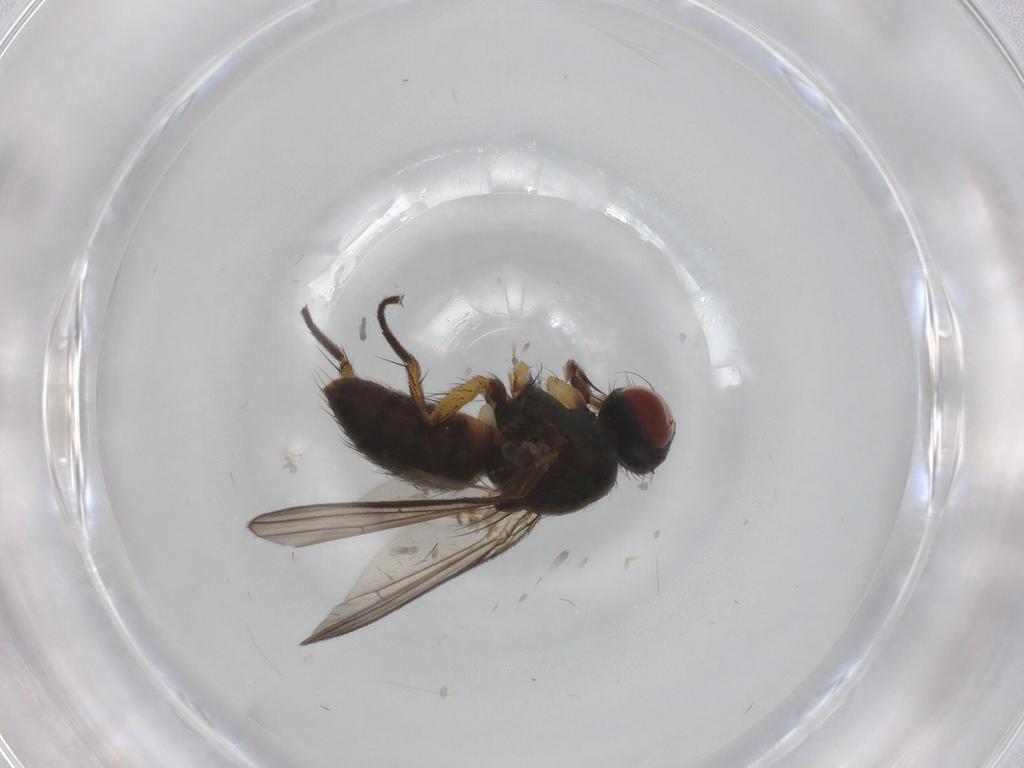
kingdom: Animalia
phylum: Arthropoda
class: Insecta
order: Diptera
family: Muscidae
